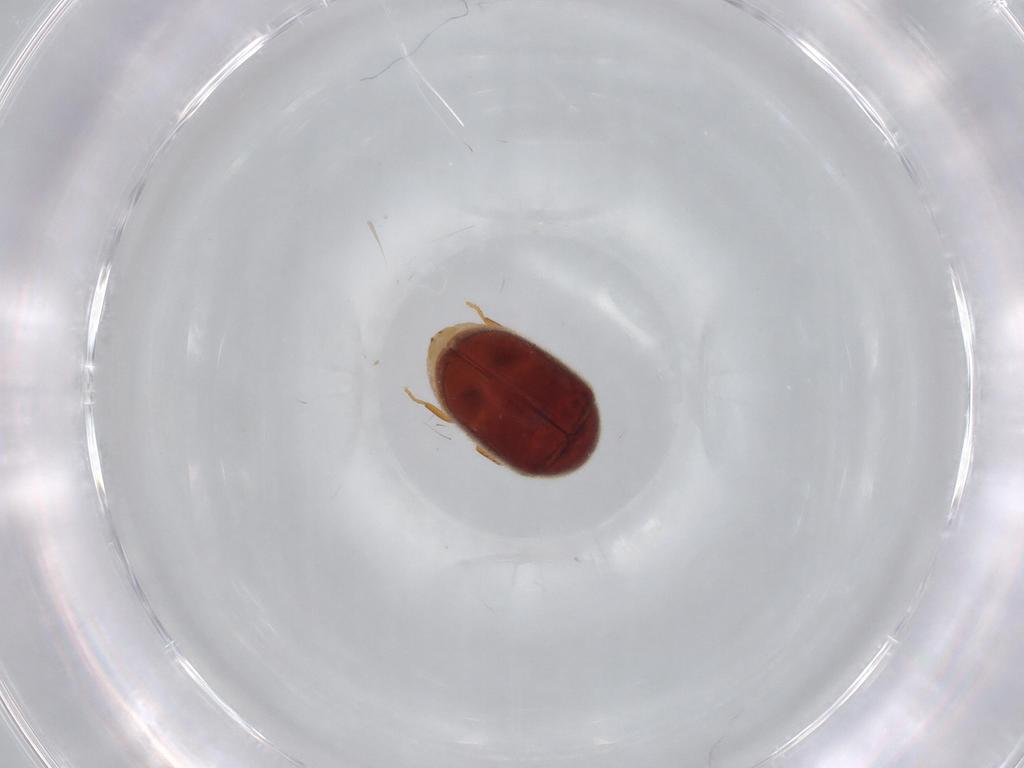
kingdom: Animalia
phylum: Arthropoda
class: Insecta
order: Coleoptera
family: Ptinidae
